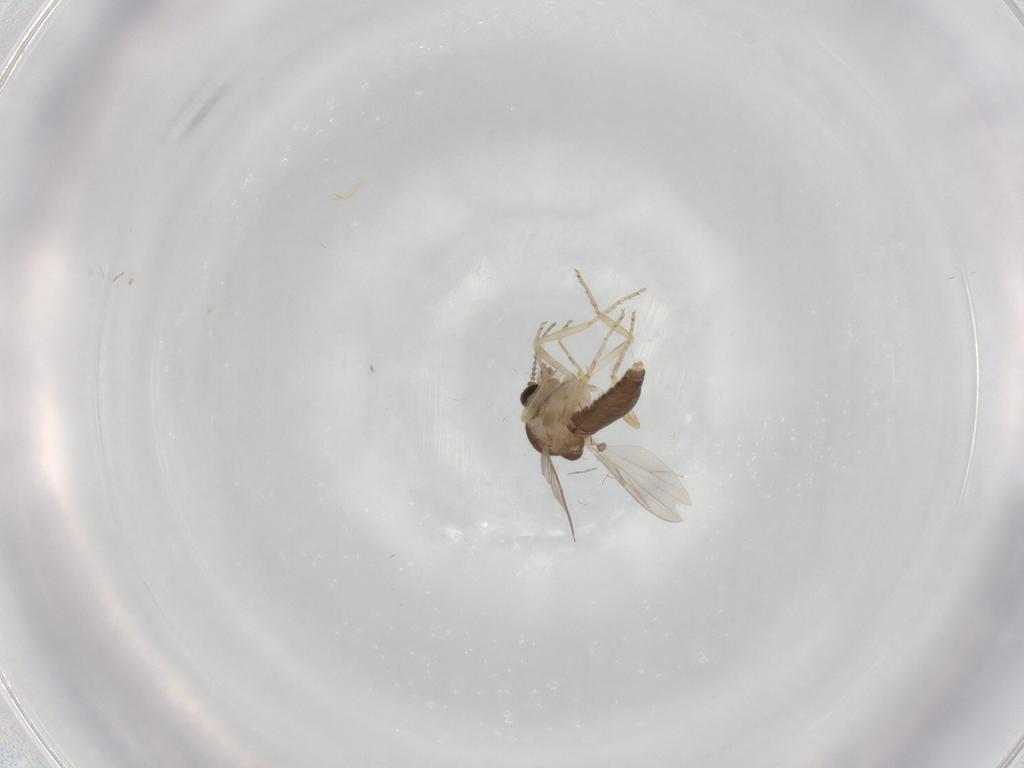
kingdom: Animalia
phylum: Arthropoda
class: Insecta
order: Diptera
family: Ceratopogonidae
